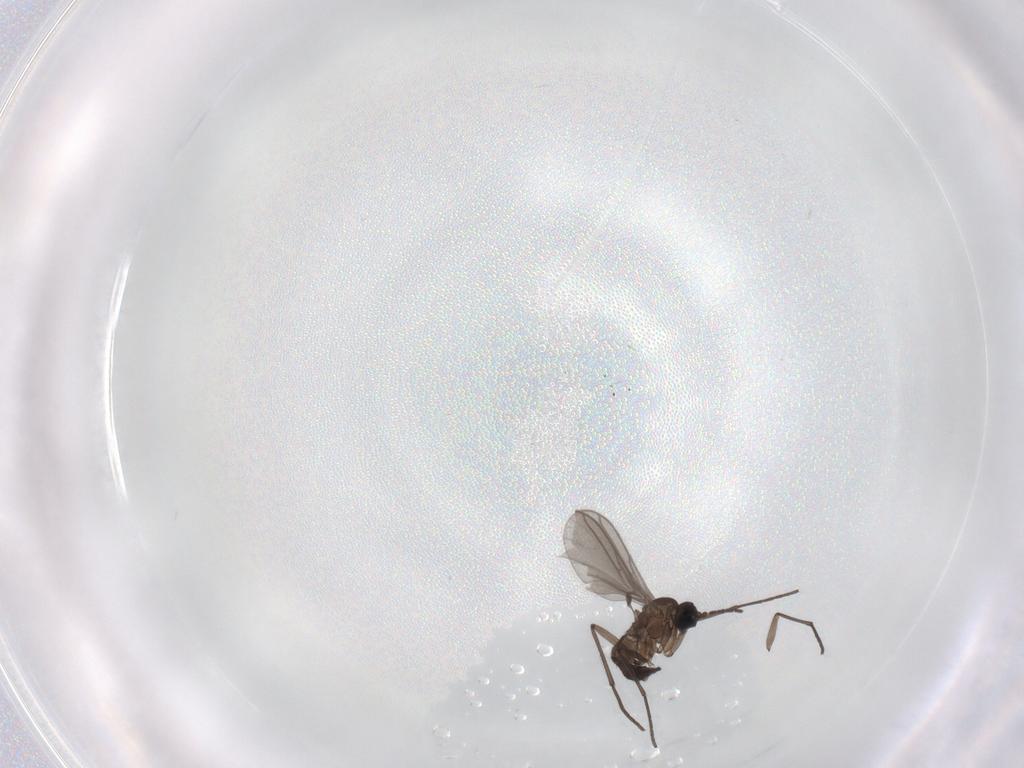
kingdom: Animalia
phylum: Arthropoda
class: Insecta
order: Diptera
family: Sciaridae
